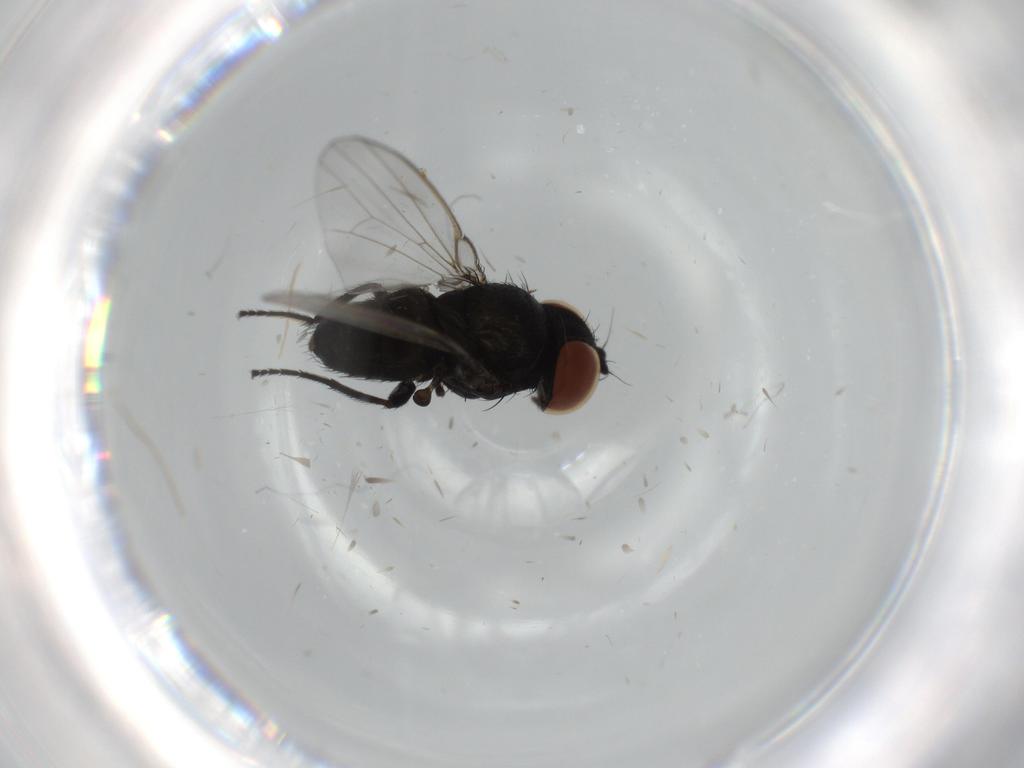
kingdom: Animalia
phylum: Arthropoda
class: Insecta
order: Diptera
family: Milichiidae
